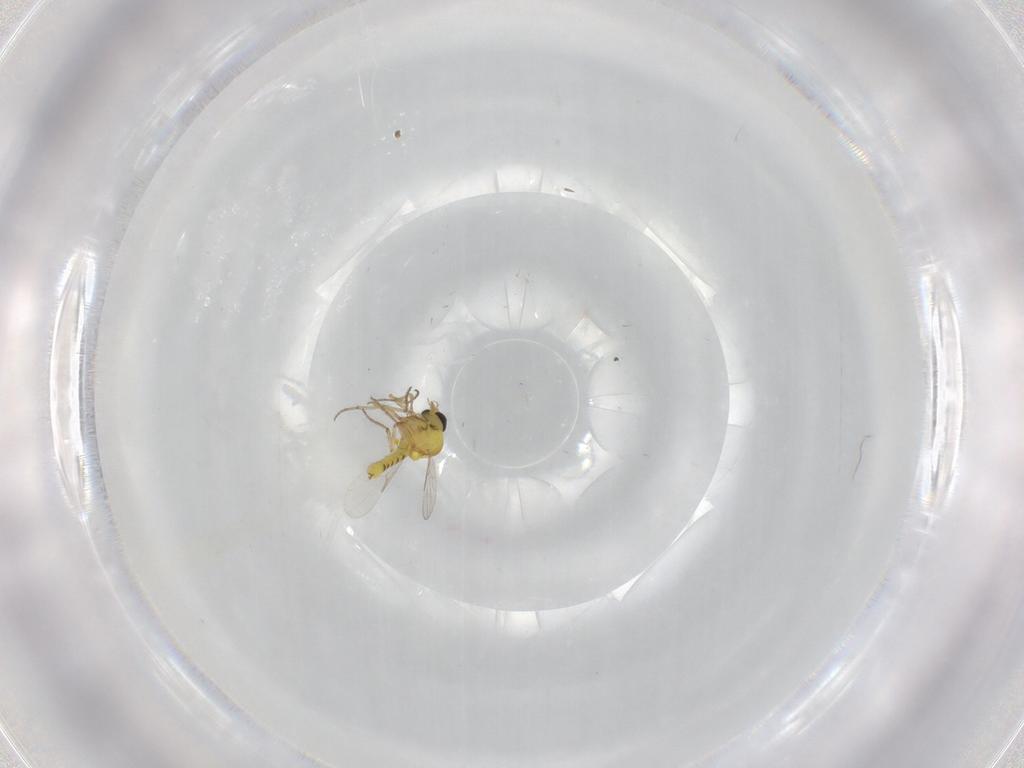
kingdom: Animalia
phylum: Arthropoda
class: Insecta
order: Diptera
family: Ceratopogonidae
